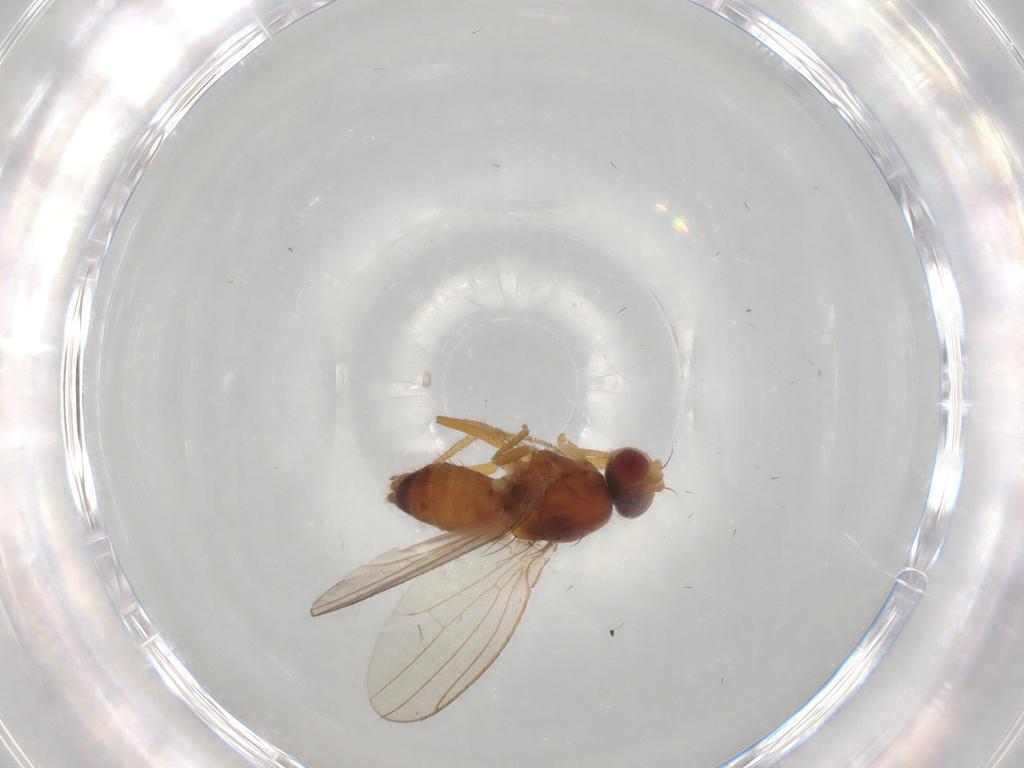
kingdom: Animalia
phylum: Arthropoda
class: Insecta
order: Diptera
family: Drosophilidae
